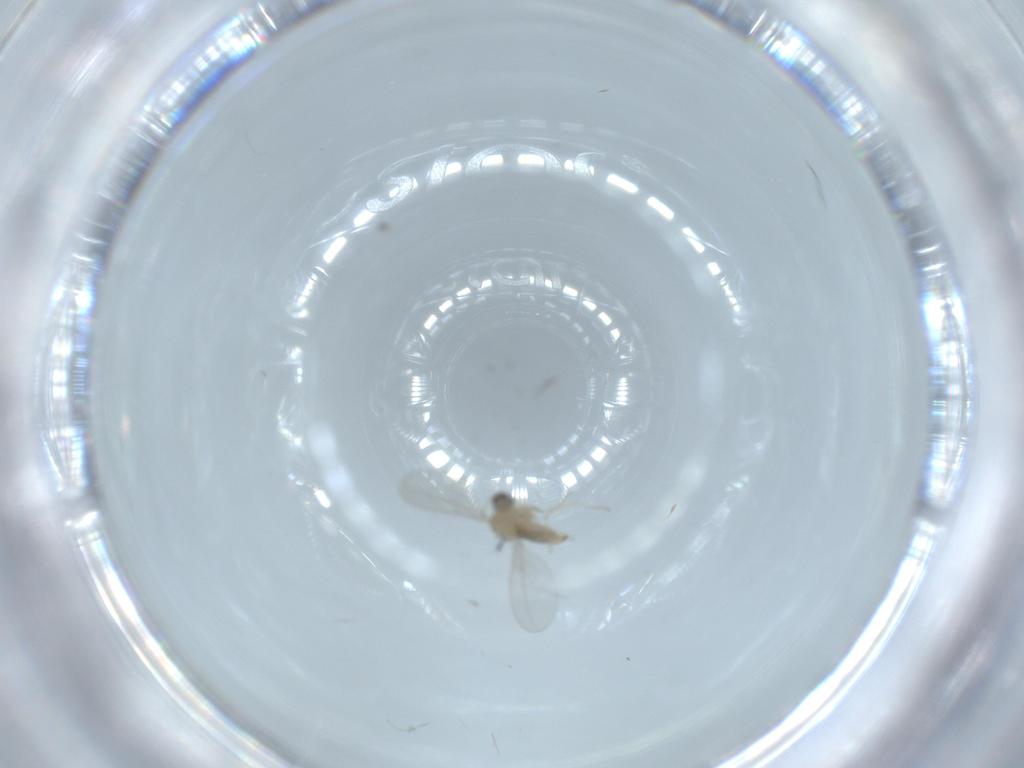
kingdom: Animalia
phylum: Arthropoda
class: Insecta
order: Diptera
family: Cecidomyiidae
